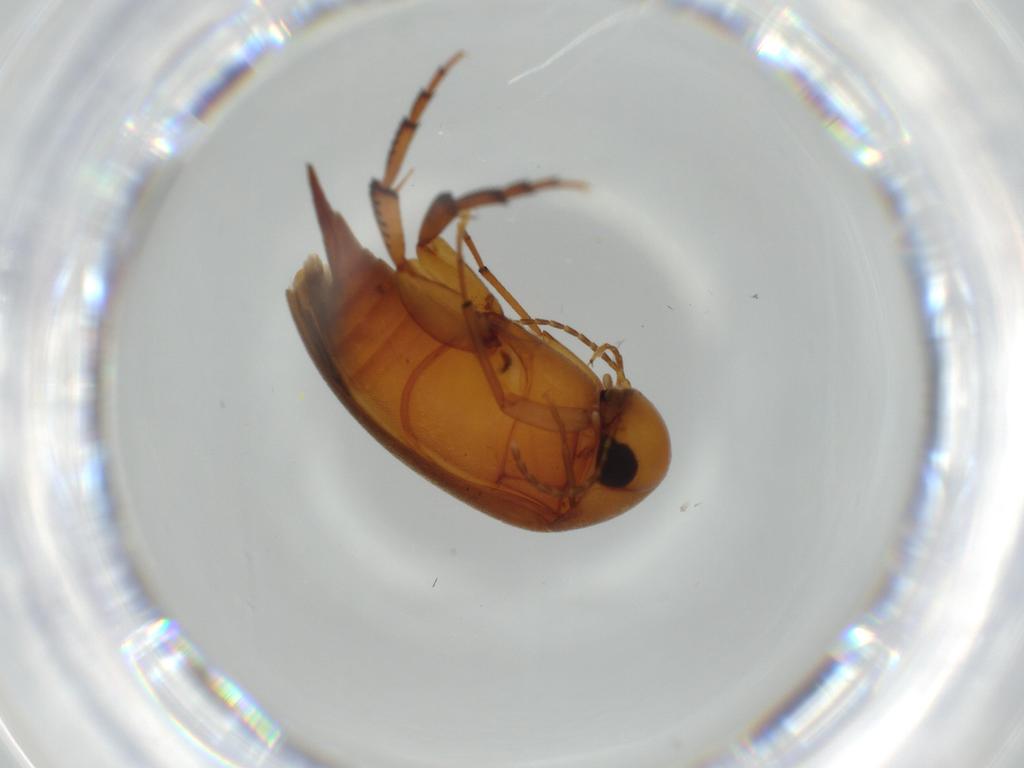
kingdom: Animalia
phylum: Arthropoda
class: Insecta
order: Coleoptera
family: Mordellidae
